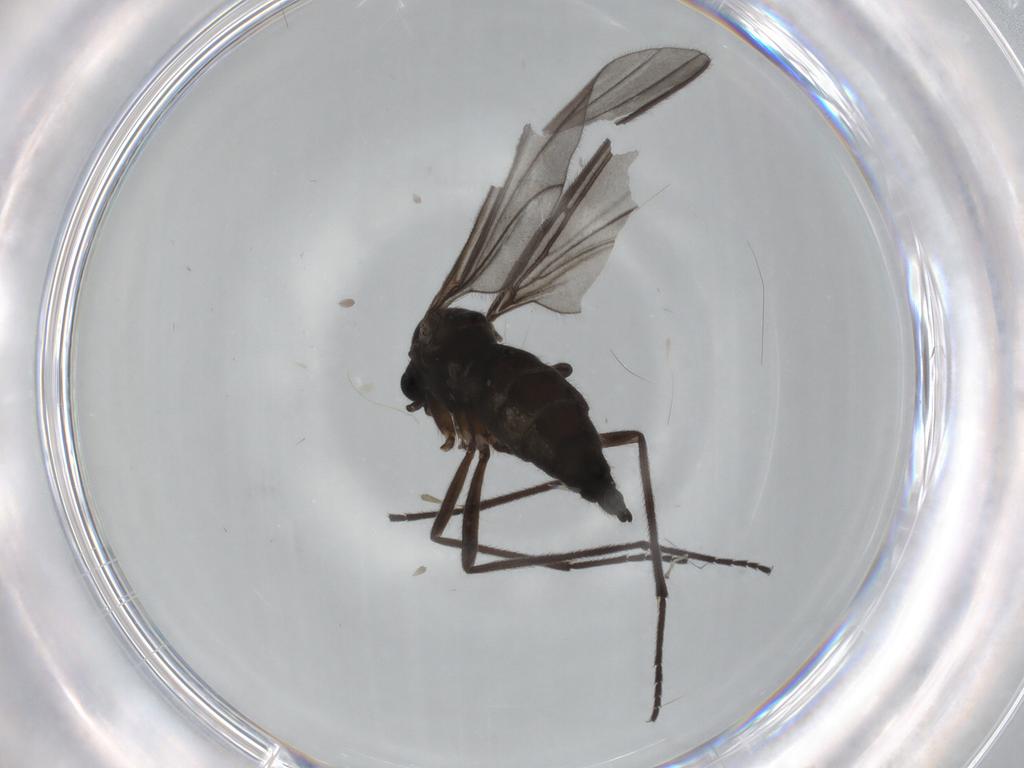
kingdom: Animalia
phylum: Arthropoda
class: Insecta
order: Diptera
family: Sciaridae
